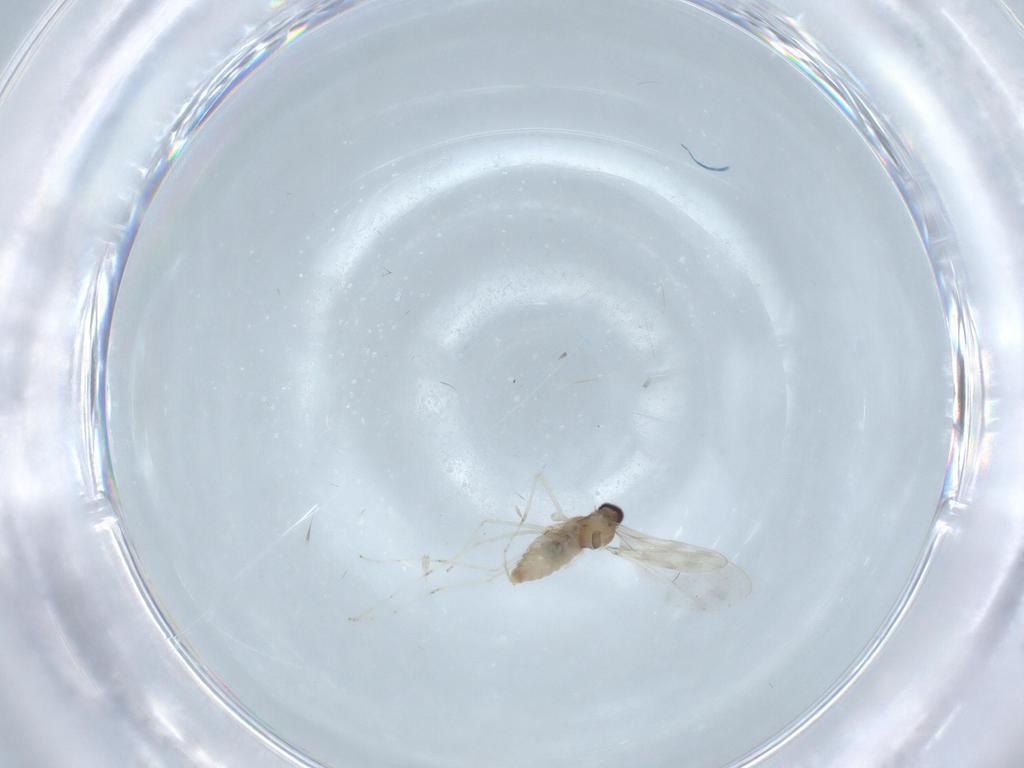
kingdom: Animalia
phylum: Arthropoda
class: Insecta
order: Diptera
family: Cecidomyiidae
